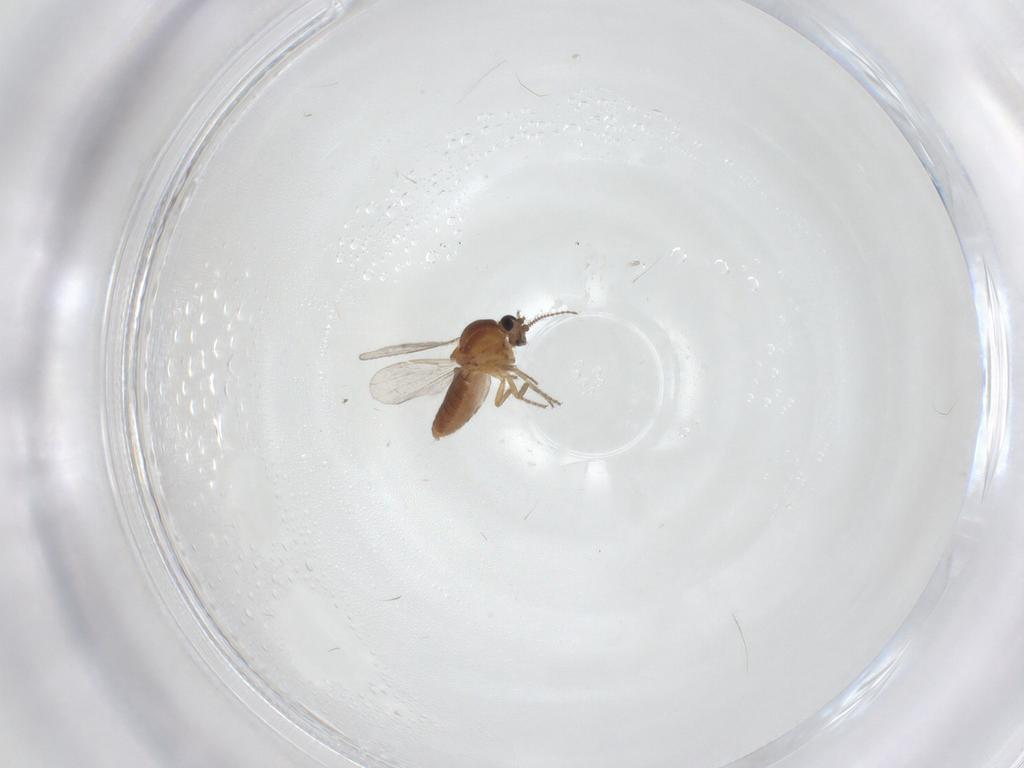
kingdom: Animalia
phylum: Arthropoda
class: Insecta
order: Diptera
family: Ceratopogonidae
